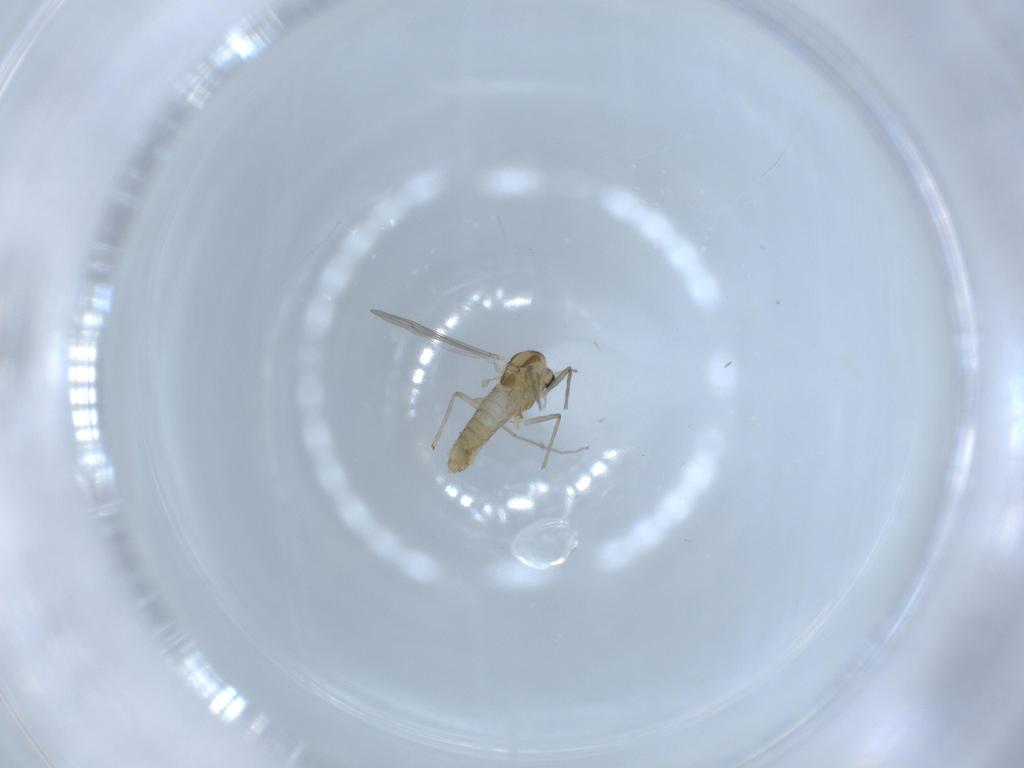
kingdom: Animalia
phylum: Arthropoda
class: Insecta
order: Diptera
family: Chironomidae
